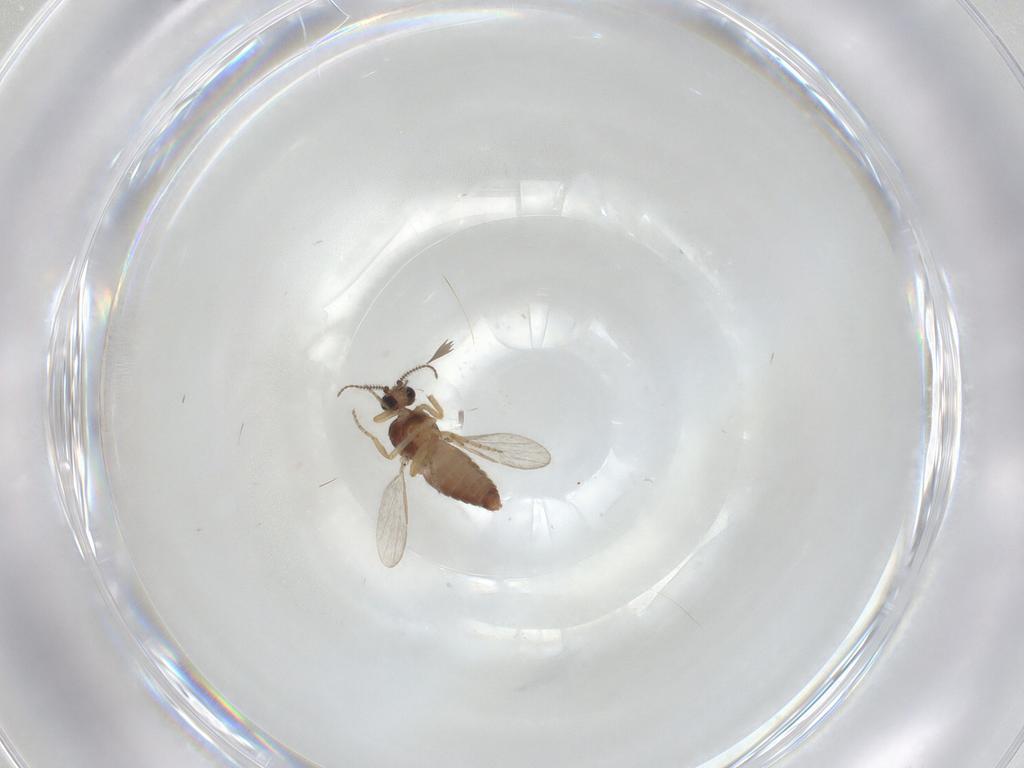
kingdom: Animalia
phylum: Arthropoda
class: Insecta
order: Diptera
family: Ceratopogonidae
